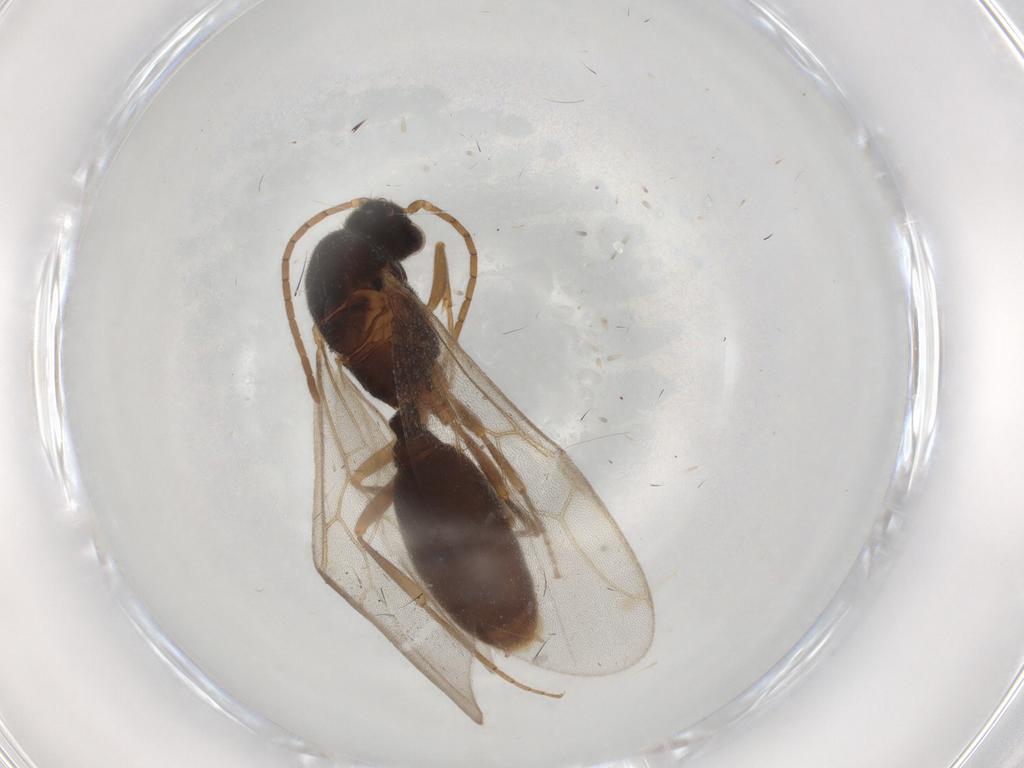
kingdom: Animalia
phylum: Arthropoda
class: Insecta
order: Hymenoptera
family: Formicidae
